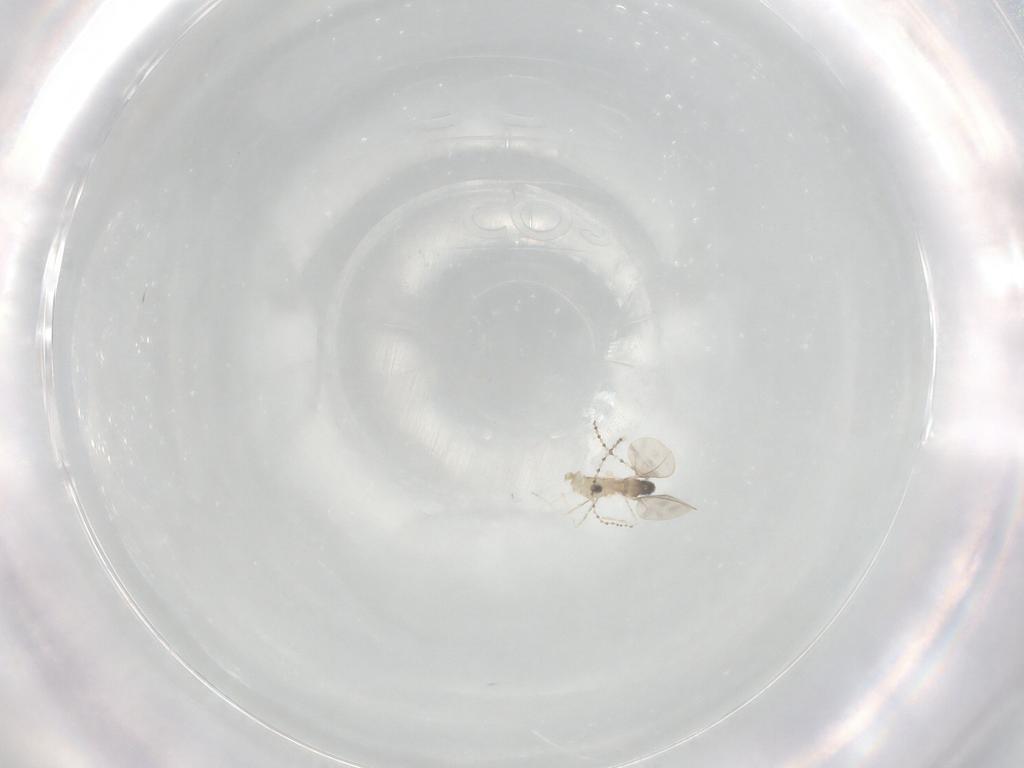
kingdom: Animalia
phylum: Arthropoda
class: Insecta
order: Diptera
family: Cecidomyiidae
